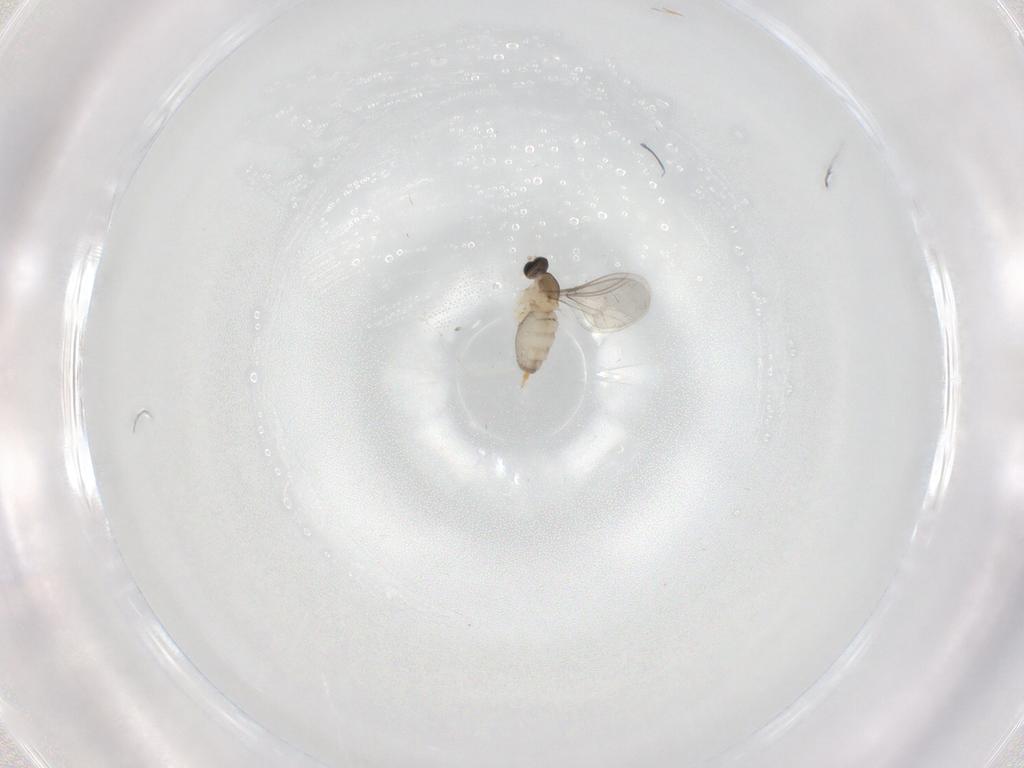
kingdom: Animalia
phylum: Arthropoda
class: Insecta
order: Diptera
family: Cecidomyiidae
